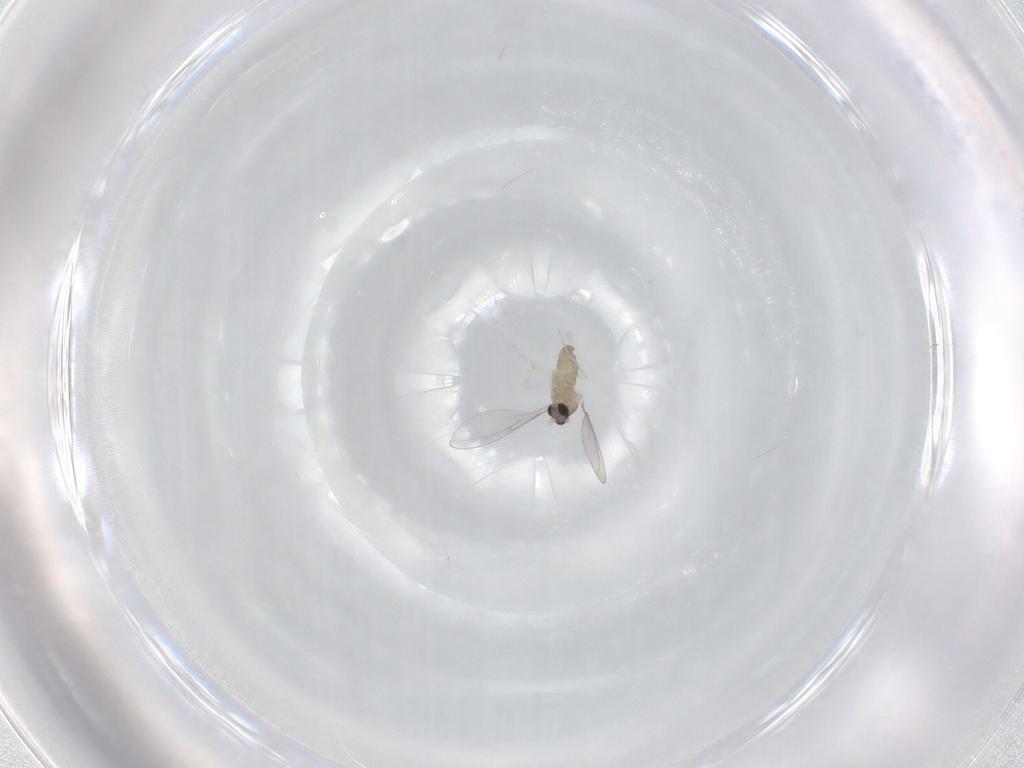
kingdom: Animalia
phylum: Arthropoda
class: Insecta
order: Diptera
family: Cecidomyiidae
